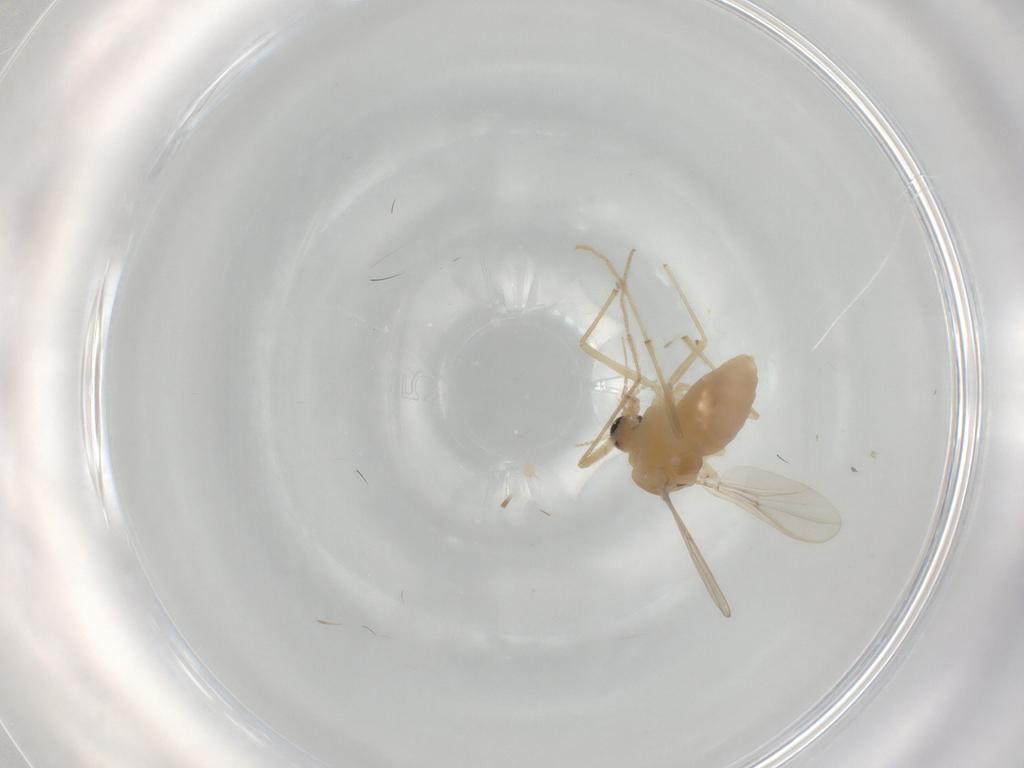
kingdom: Animalia
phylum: Arthropoda
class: Insecta
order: Diptera
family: Chironomidae
